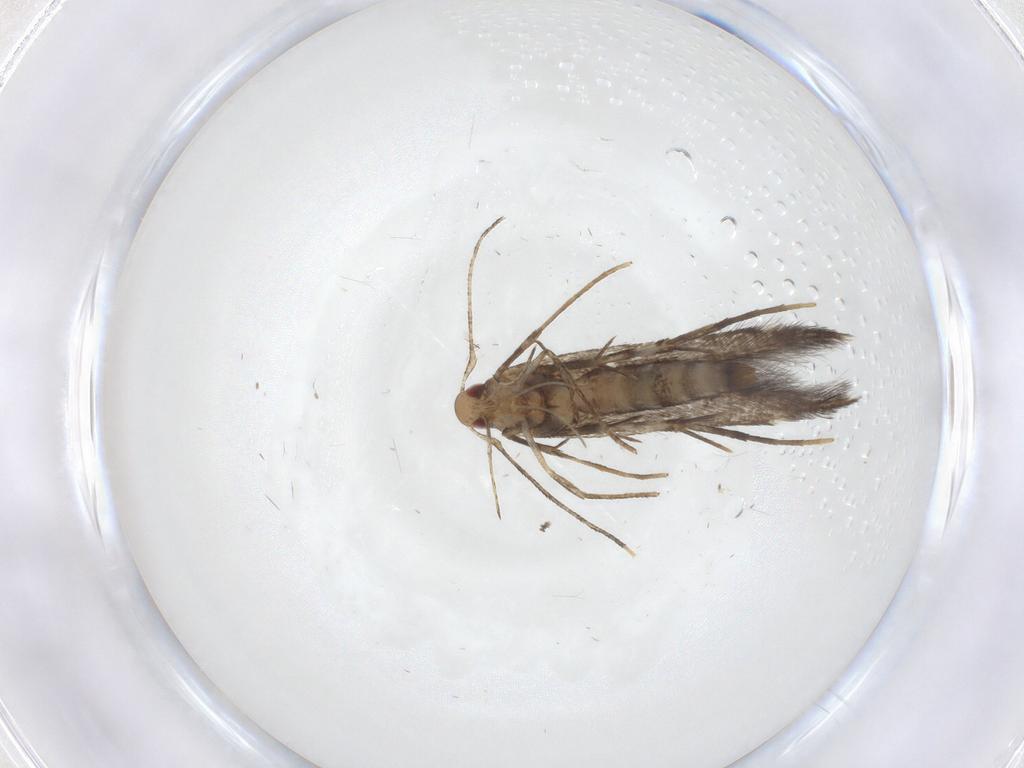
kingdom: Animalia
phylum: Arthropoda
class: Insecta
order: Lepidoptera
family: Cosmopterigidae
